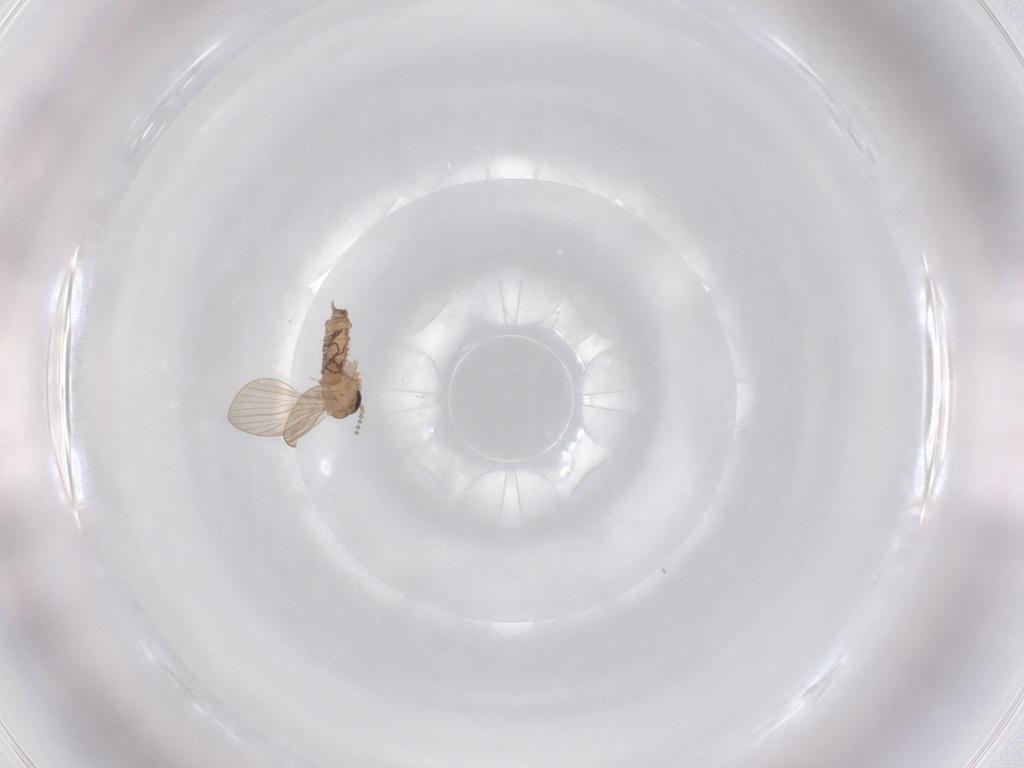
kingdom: Animalia
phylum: Arthropoda
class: Insecta
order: Diptera
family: Psychodidae
